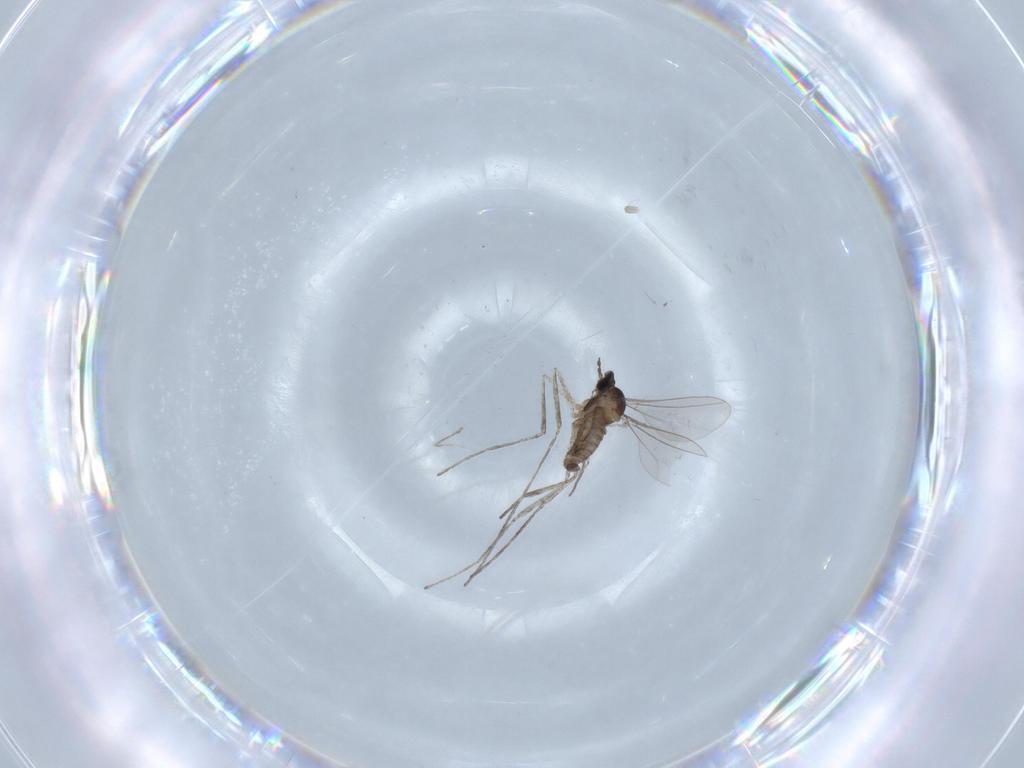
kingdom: Animalia
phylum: Arthropoda
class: Insecta
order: Diptera
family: Cecidomyiidae
